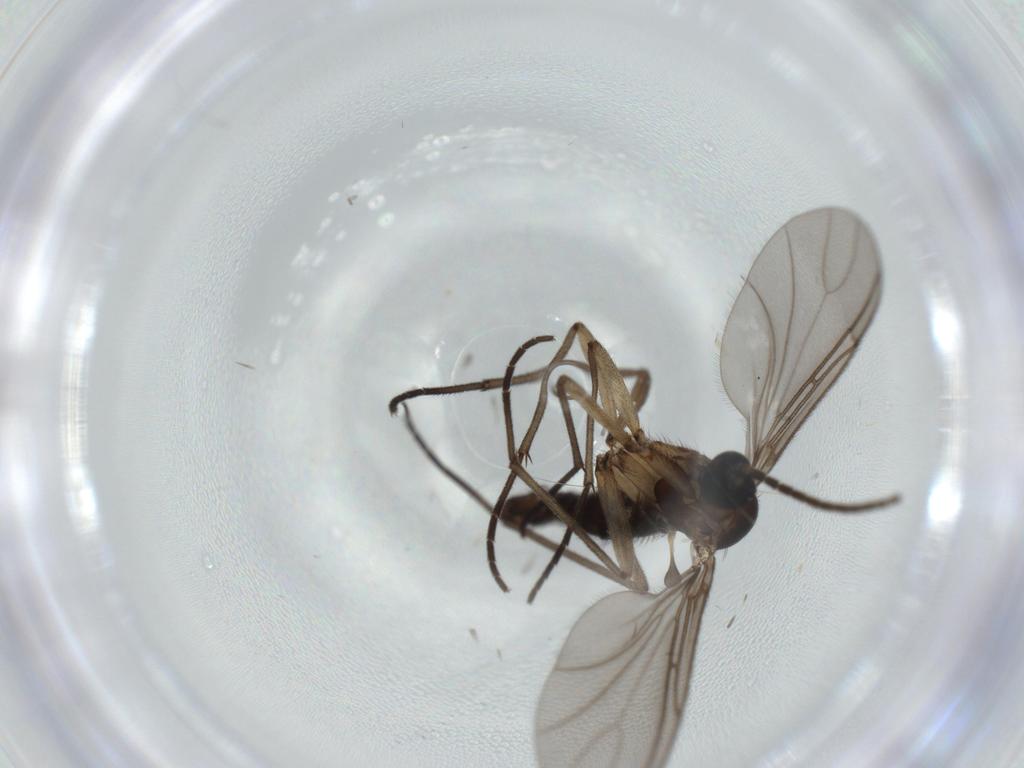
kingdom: Animalia
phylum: Arthropoda
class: Insecta
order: Diptera
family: Sciaridae
